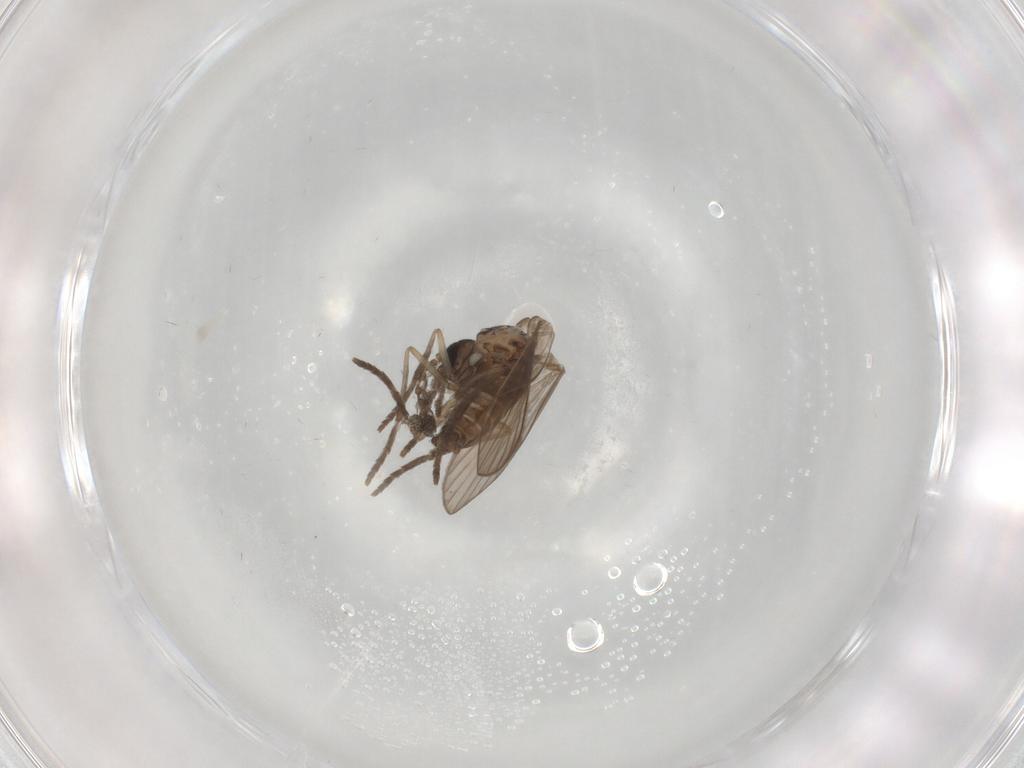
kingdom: Animalia
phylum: Arthropoda
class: Insecta
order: Diptera
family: Psychodidae
